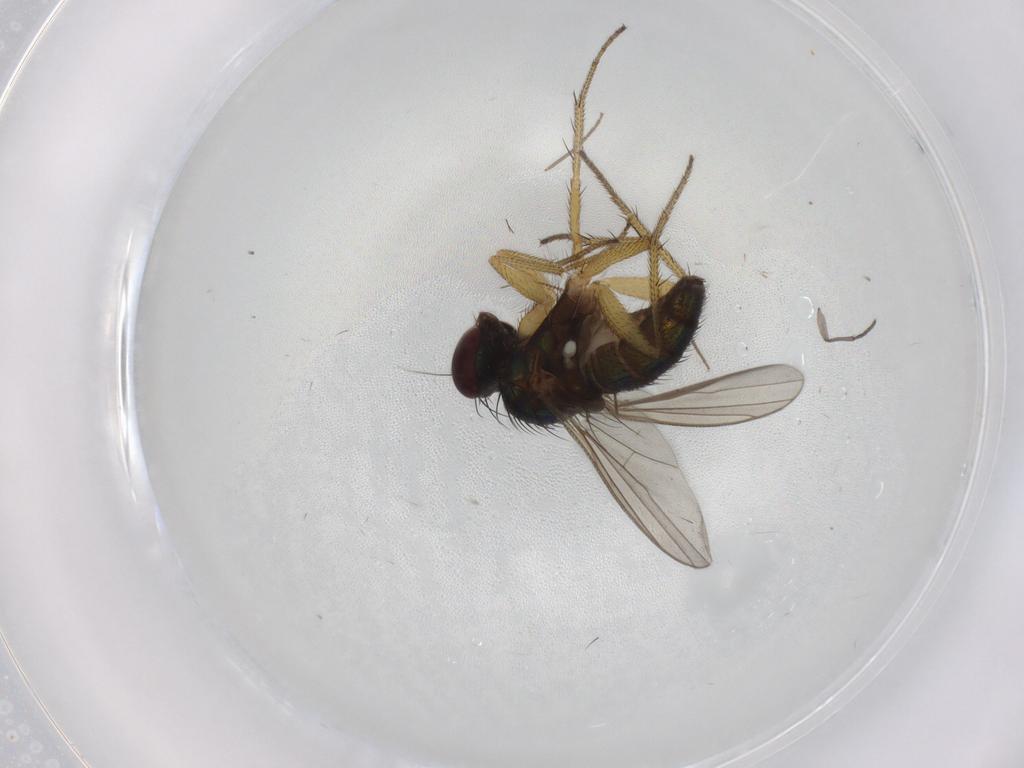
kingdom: Animalia
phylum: Arthropoda
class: Insecta
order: Diptera
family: Sciaridae
